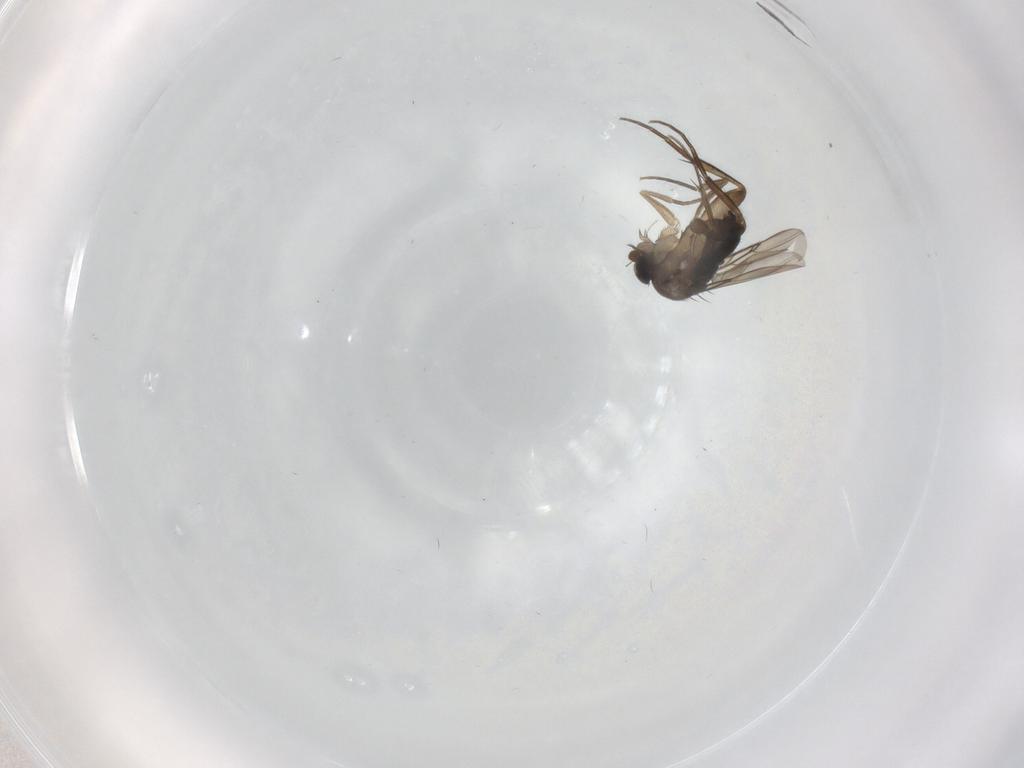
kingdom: Animalia
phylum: Arthropoda
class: Insecta
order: Diptera
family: Phoridae
